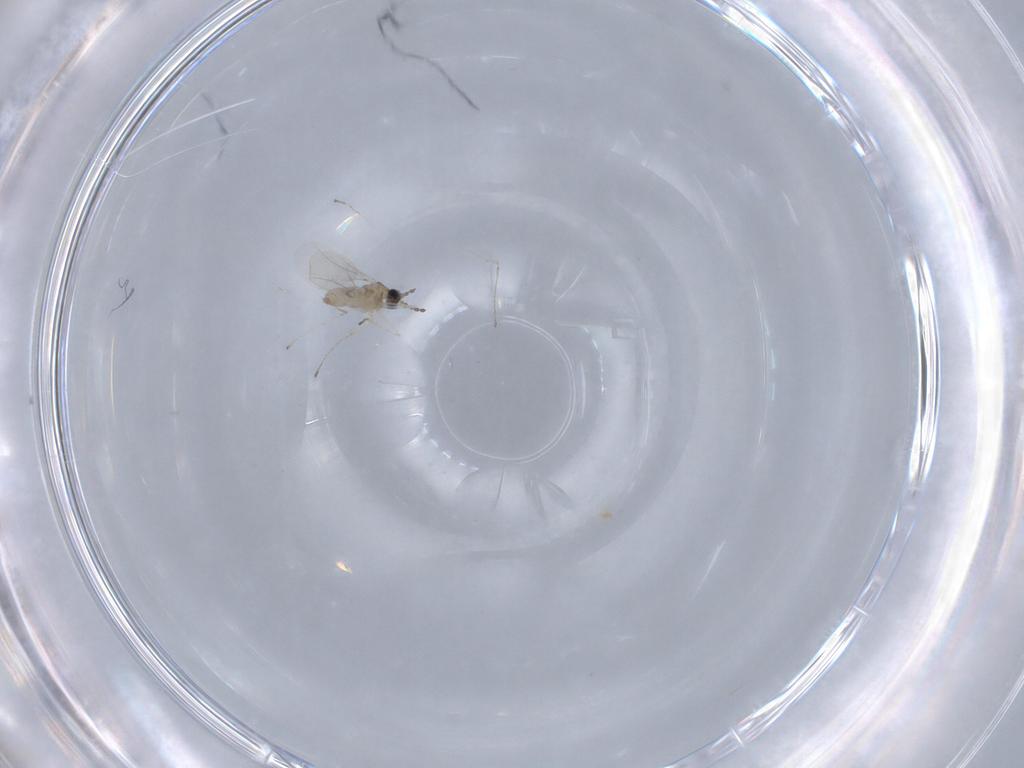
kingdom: Animalia
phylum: Arthropoda
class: Insecta
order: Diptera
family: Cecidomyiidae
